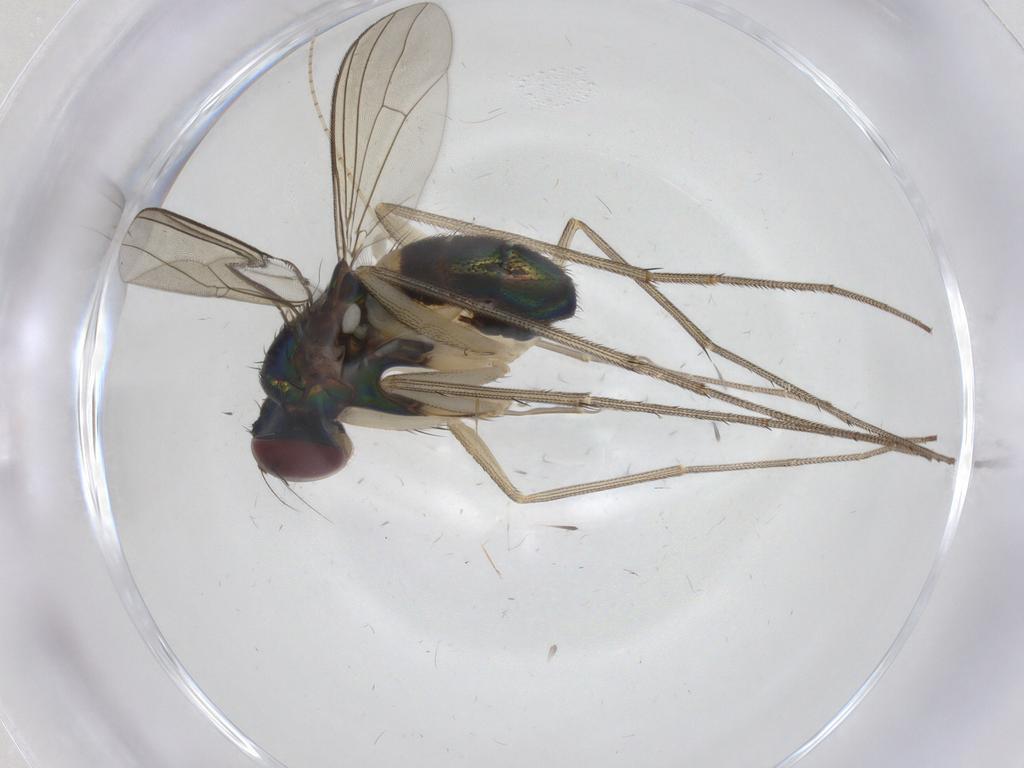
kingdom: Animalia
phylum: Arthropoda
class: Insecta
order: Diptera
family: Dolichopodidae
